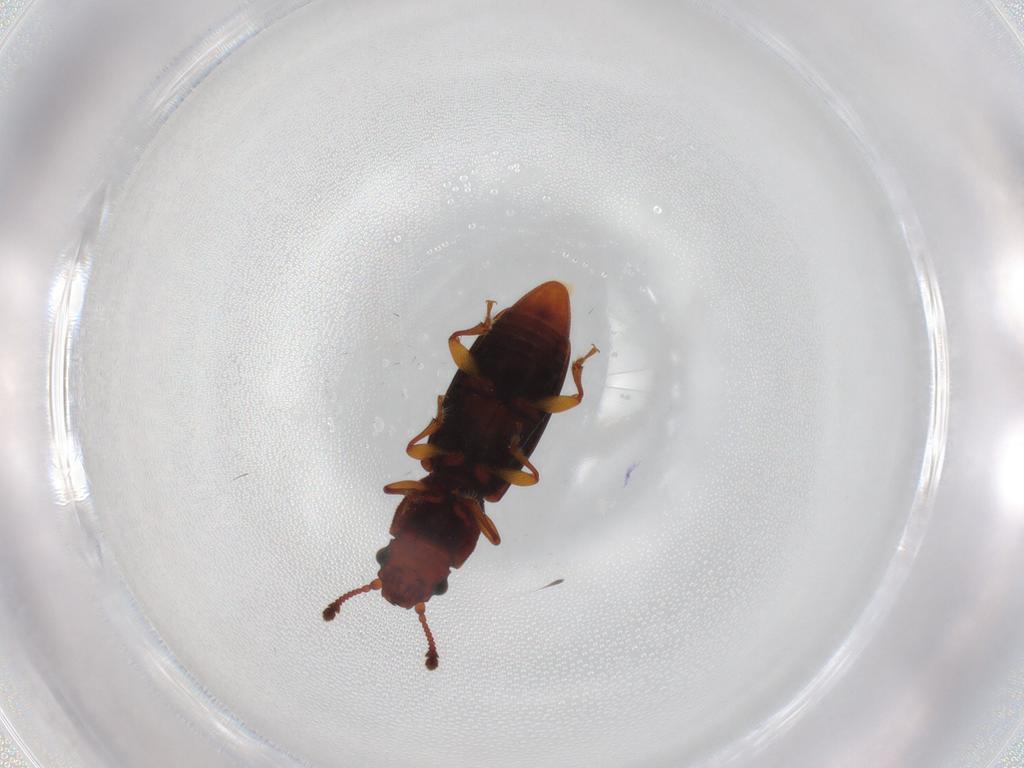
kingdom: Animalia
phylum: Arthropoda
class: Insecta
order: Coleoptera
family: Monotomidae
